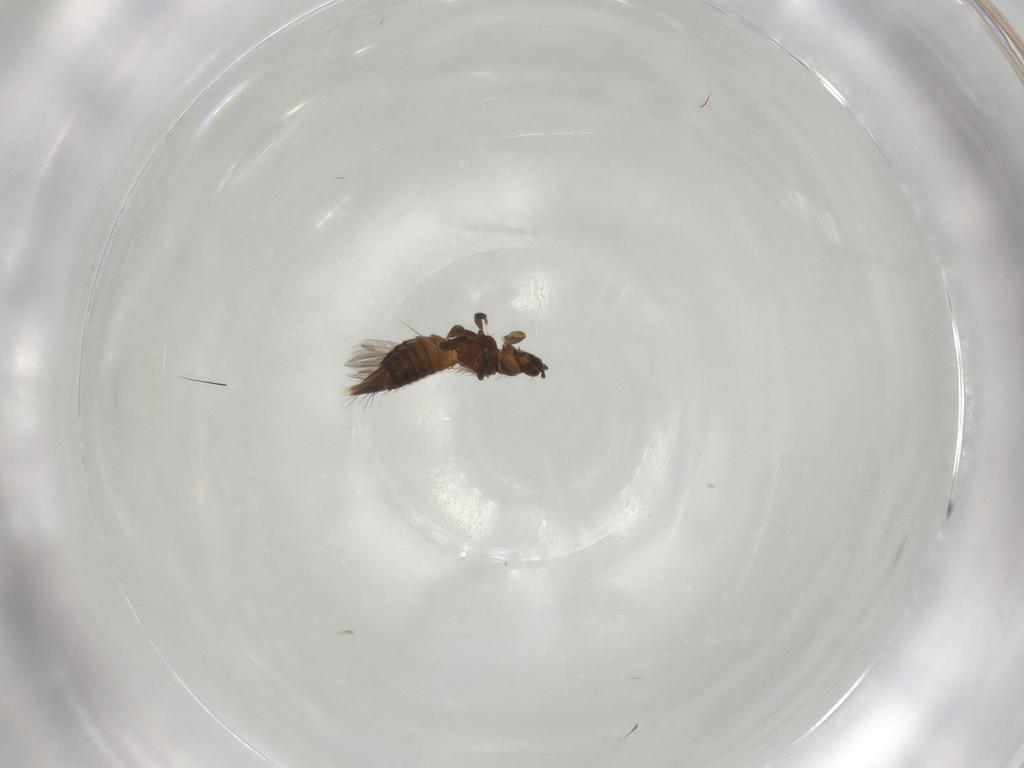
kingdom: Animalia
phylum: Arthropoda
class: Insecta
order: Thysanoptera
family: Thripidae
